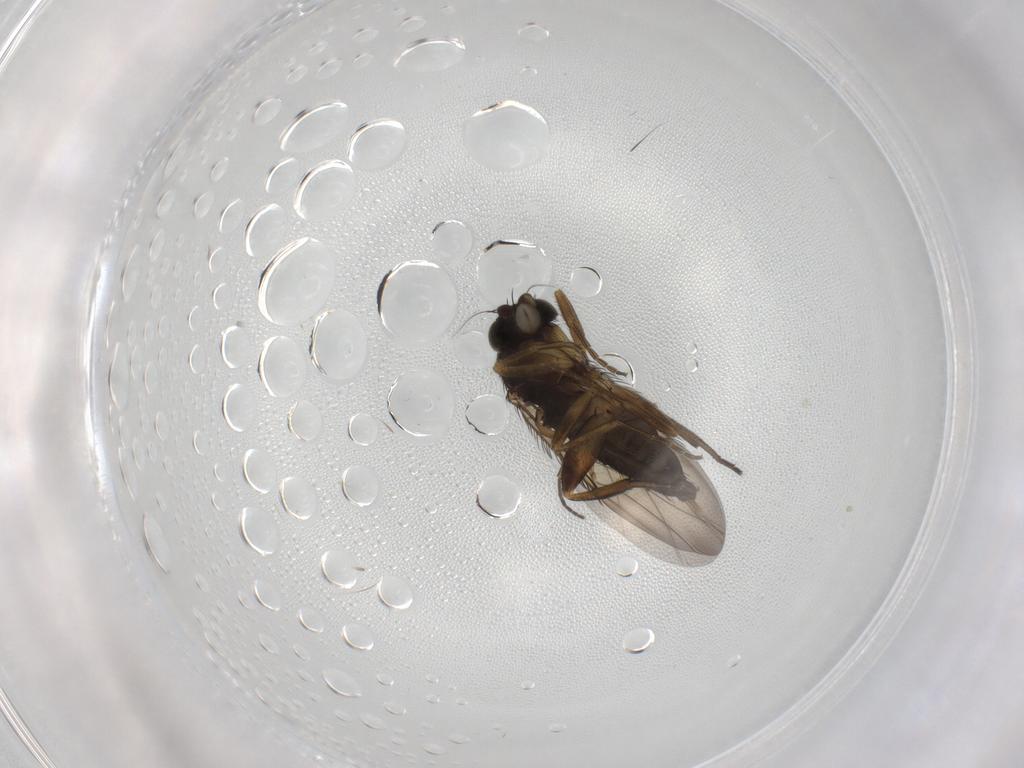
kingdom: Animalia
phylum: Arthropoda
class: Insecta
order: Diptera
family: Phoridae
